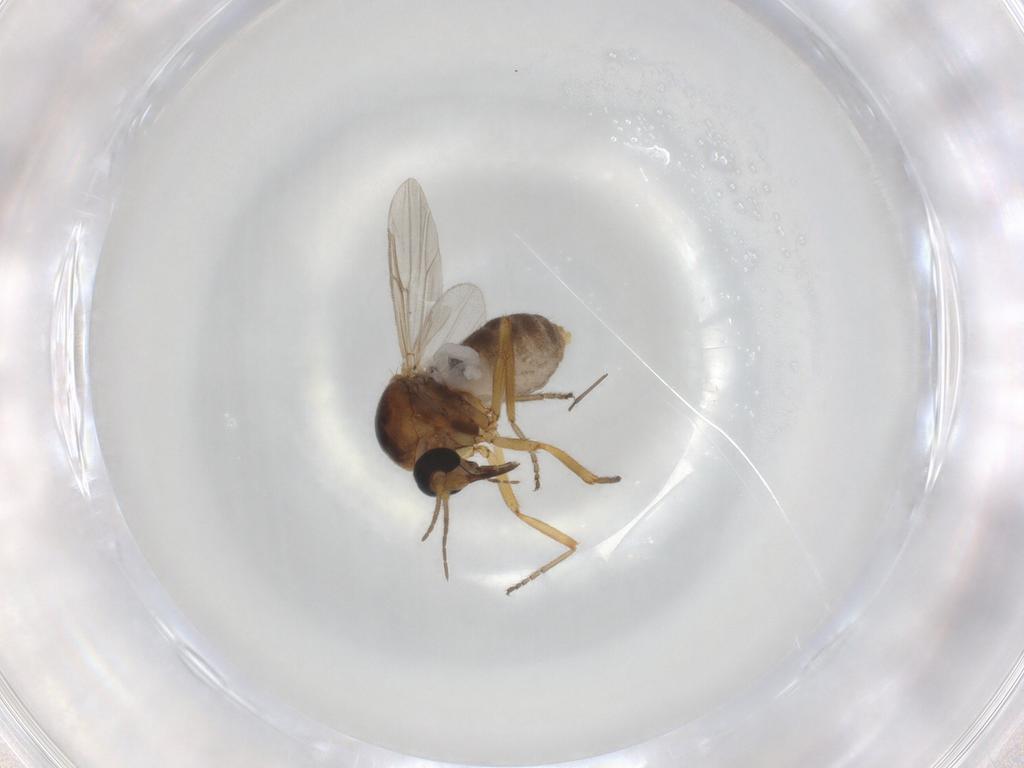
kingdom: Animalia
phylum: Arthropoda
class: Insecta
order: Diptera
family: Ceratopogonidae
